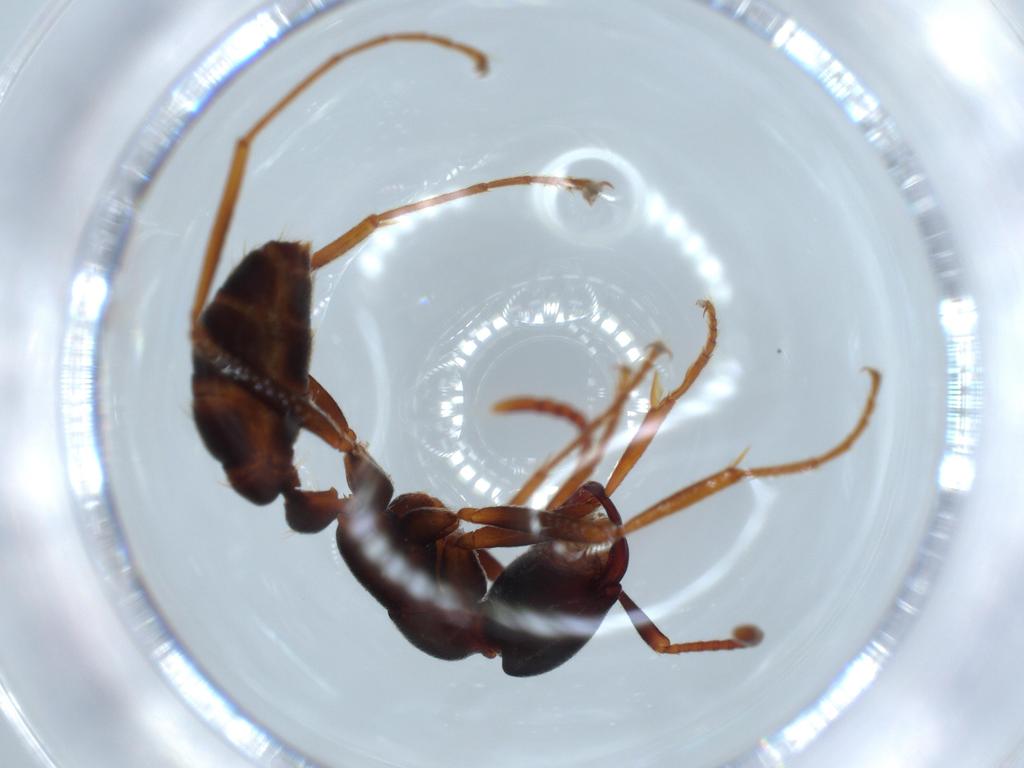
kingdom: Animalia
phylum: Arthropoda
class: Insecta
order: Hymenoptera
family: Formicidae
